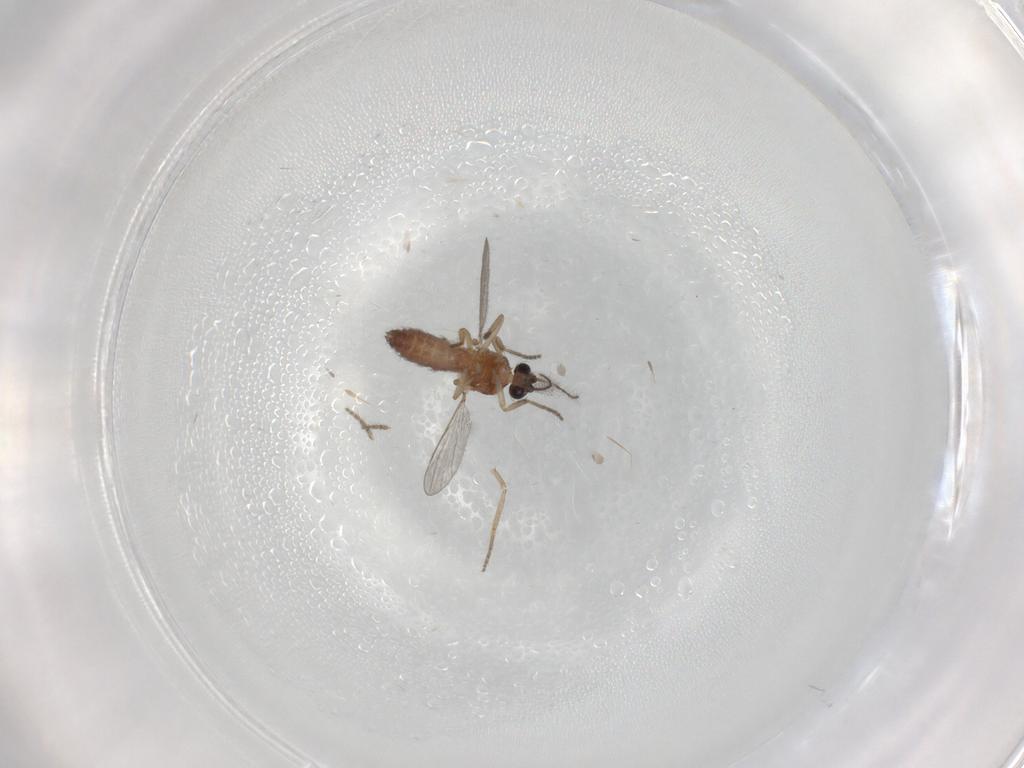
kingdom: Animalia
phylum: Arthropoda
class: Insecta
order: Diptera
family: Ceratopogonidae
